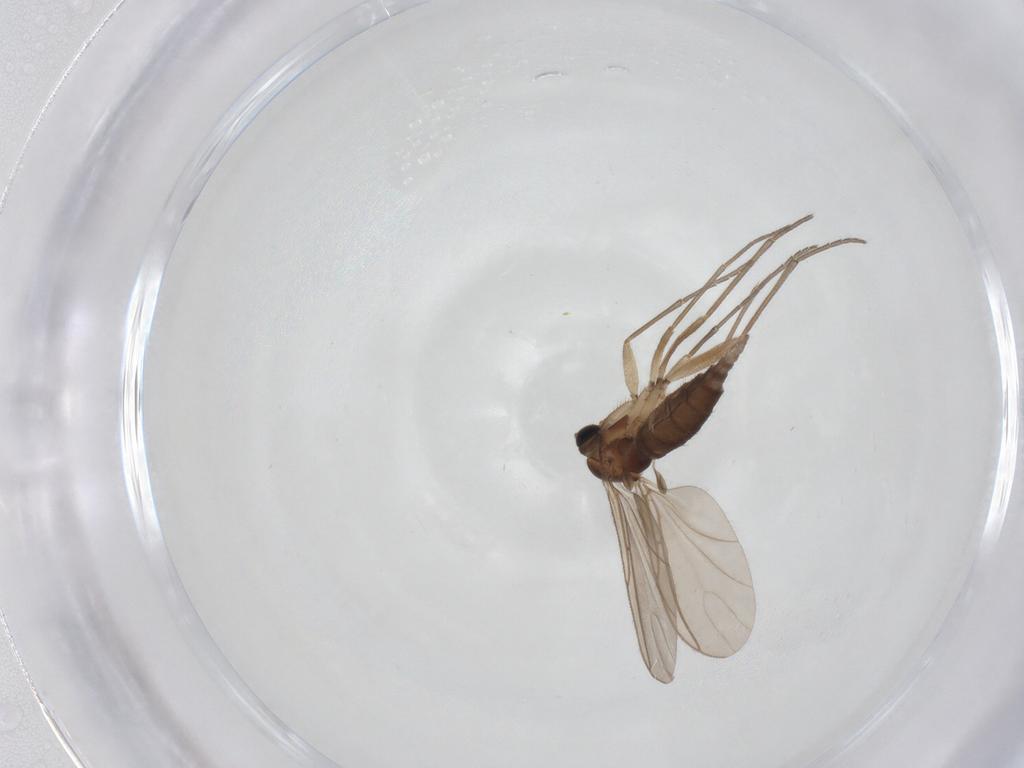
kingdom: Animalia
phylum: Arthropoda
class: Insecta
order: Diptera
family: Sciaridae
